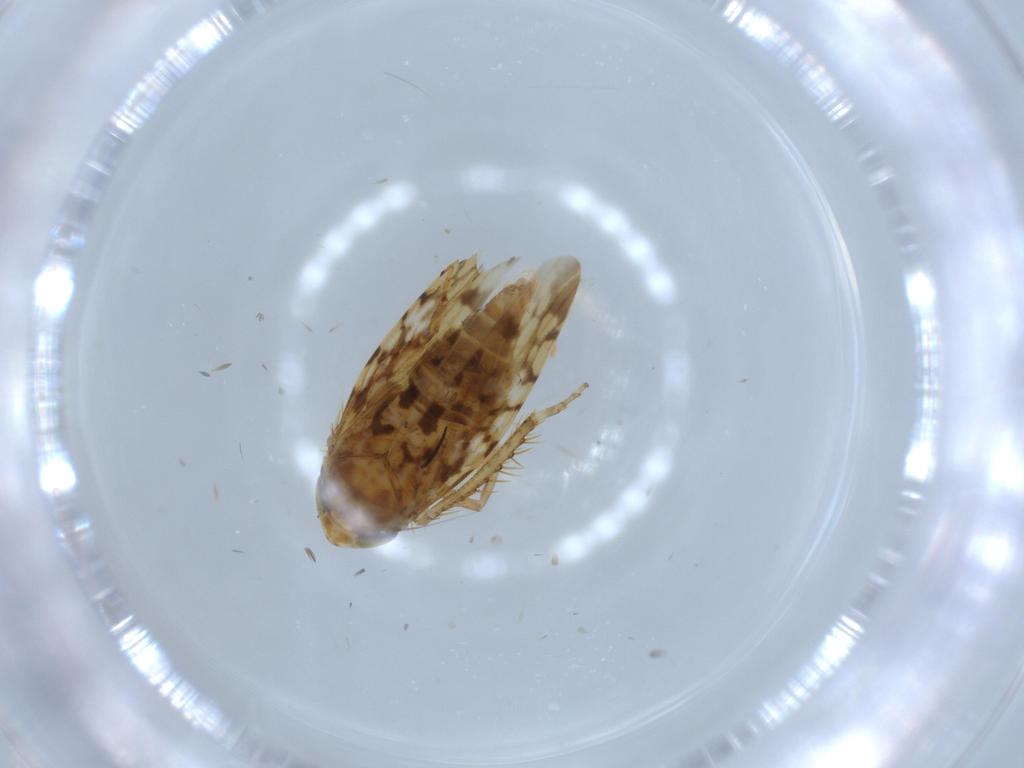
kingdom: Animalia
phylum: Arthropoda
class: Insecta
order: Hemiptera
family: Cicadellidae
